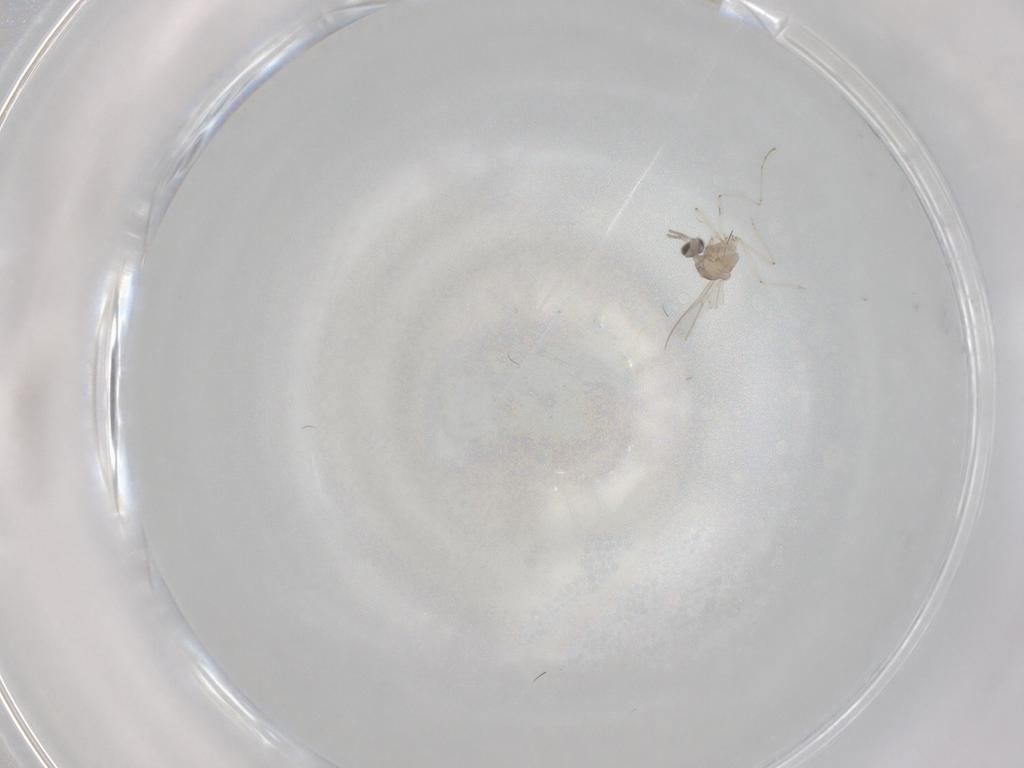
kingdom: Animalia
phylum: Arthropoda
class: Insecta
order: Diptera
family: Cecidomyiidae
